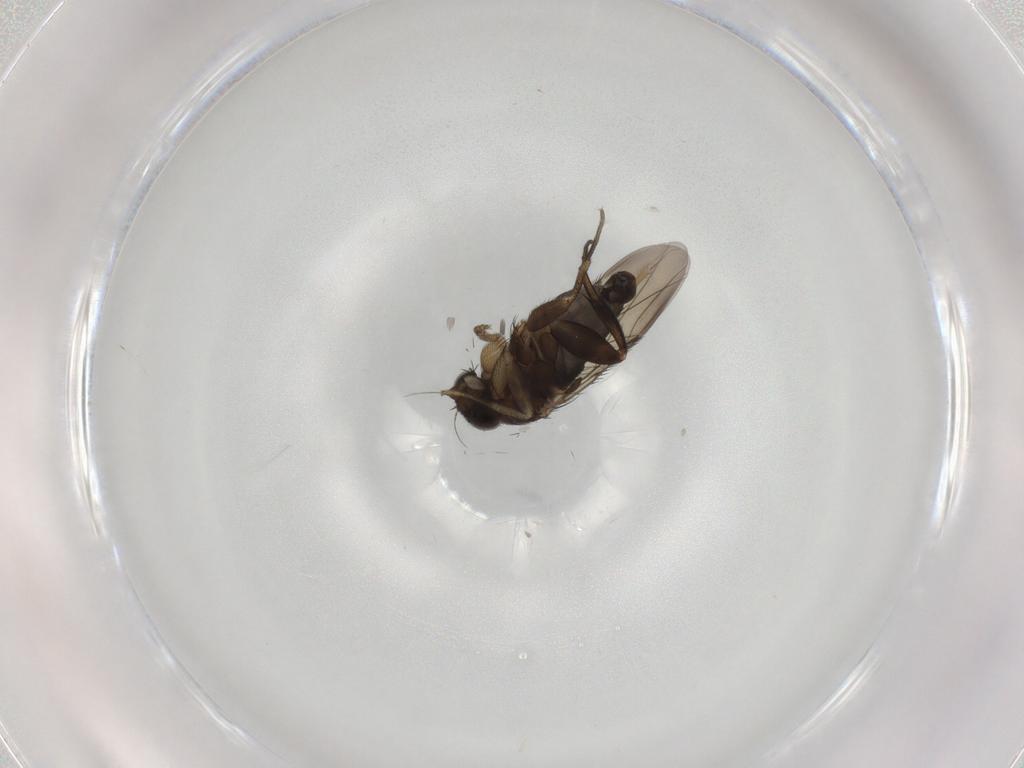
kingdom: Animalia
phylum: Arthropoda
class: Insecta
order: Diptera
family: Phoridae
